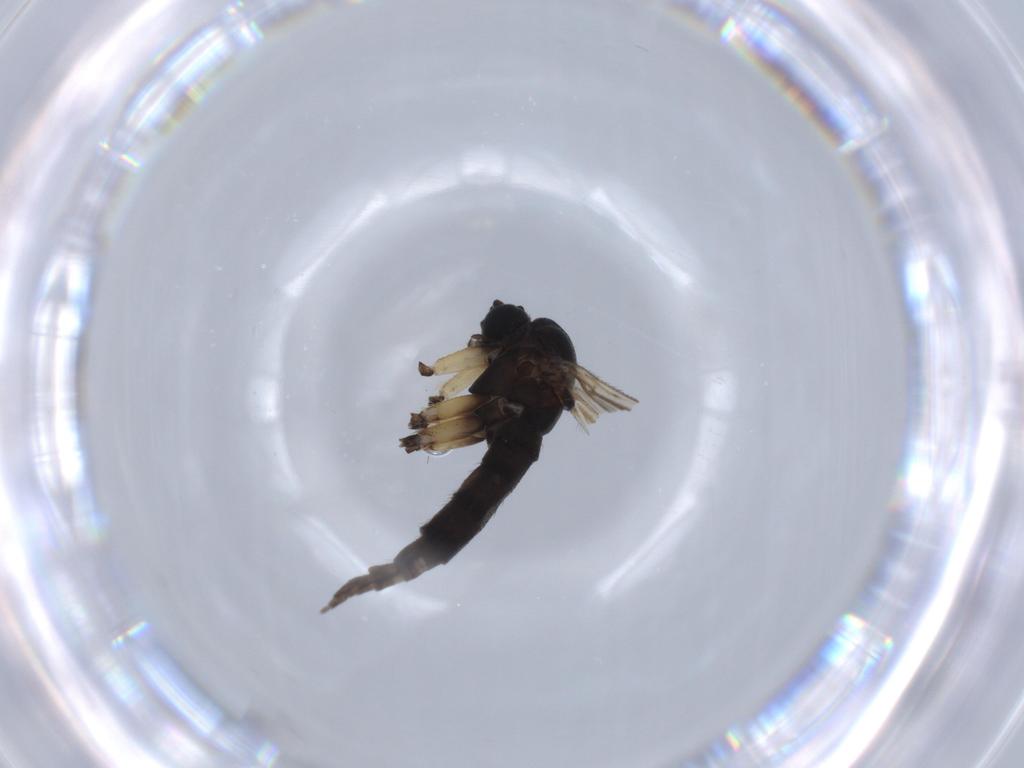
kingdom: Animalia
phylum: Arthropoda
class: Insecta
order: Diptera
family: Sciaridae
